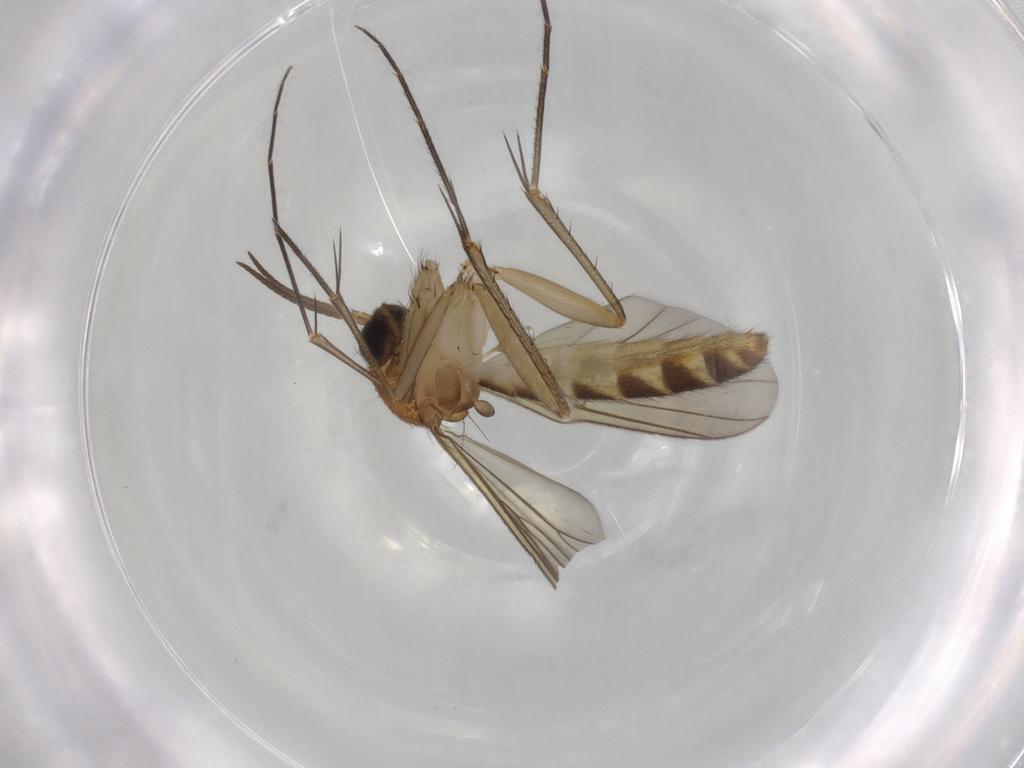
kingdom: Animalia
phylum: Arthropoda
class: Insecta
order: Diptera
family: Phoridae
